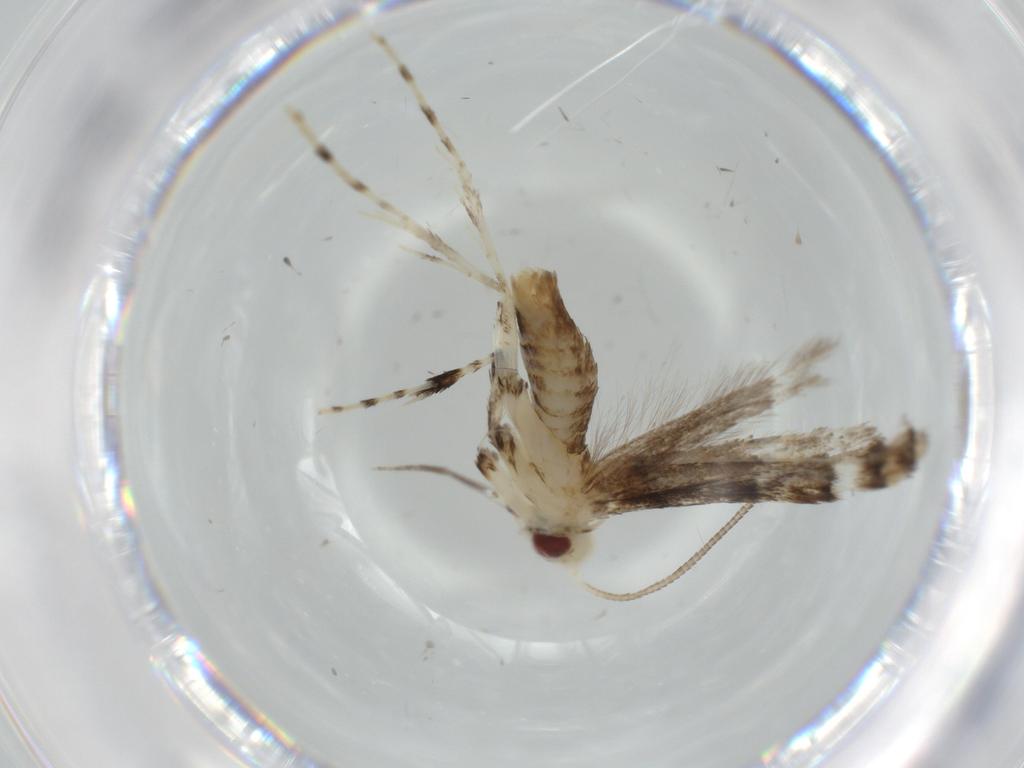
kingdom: Animalia
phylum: Arthropoda
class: Insecta
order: Lepidoptera
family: Gracillariidae
